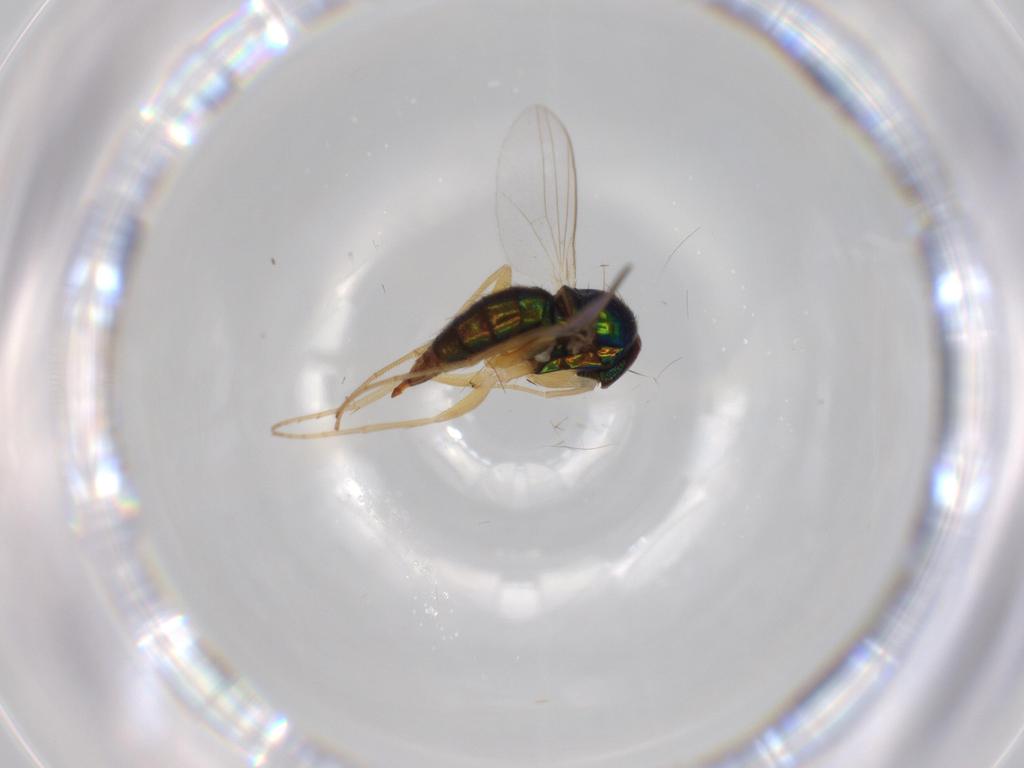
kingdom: Animalia
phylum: Arthropoda
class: Insecta
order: Diptera
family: Dolichopodidae
